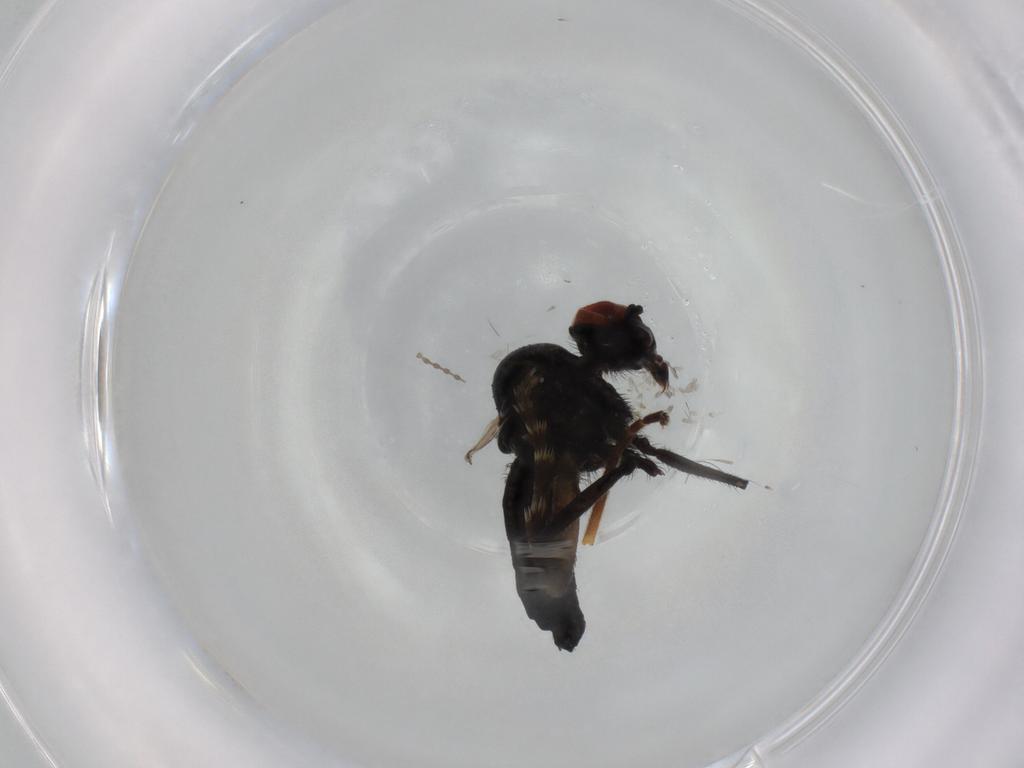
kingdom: Animalia
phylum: Arthropoda
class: Insecta
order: Diptera
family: Hybotidae
